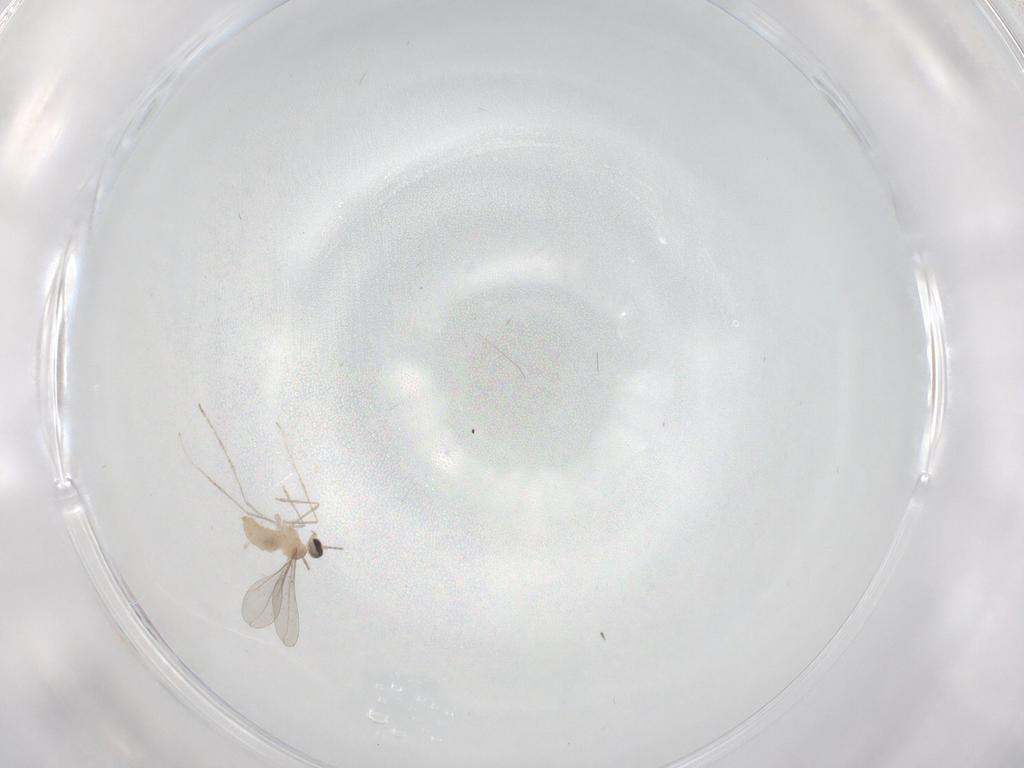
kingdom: Animalia
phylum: Arthropoda
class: Insecta
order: Diptera
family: Cecidomyiidae
